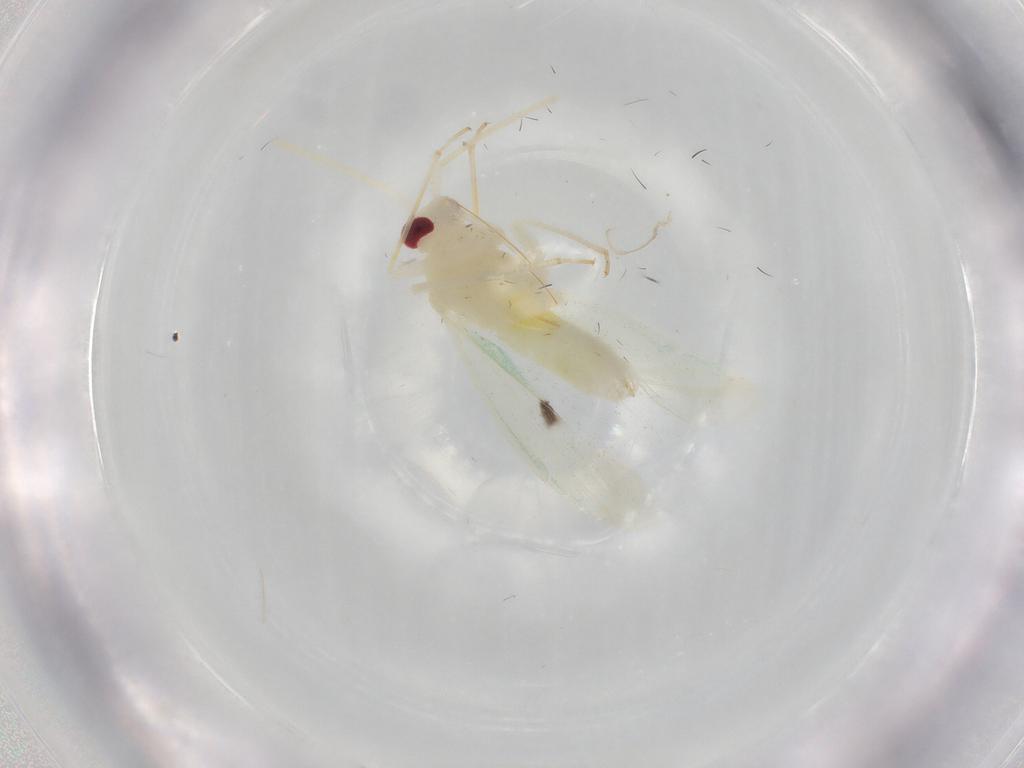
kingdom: Animalia
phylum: Arthropoda
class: Insecta
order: Hemiptera
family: Miridae
